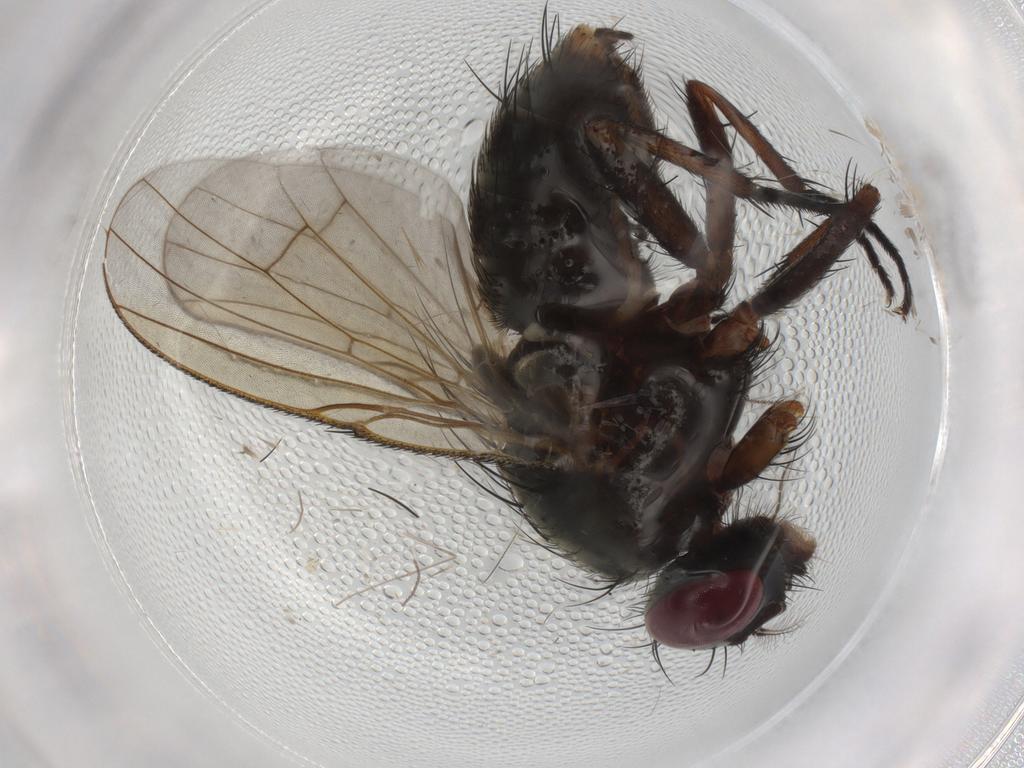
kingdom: Animalia
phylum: Arthropoda
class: Insecta
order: Diptera
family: Muscidae
